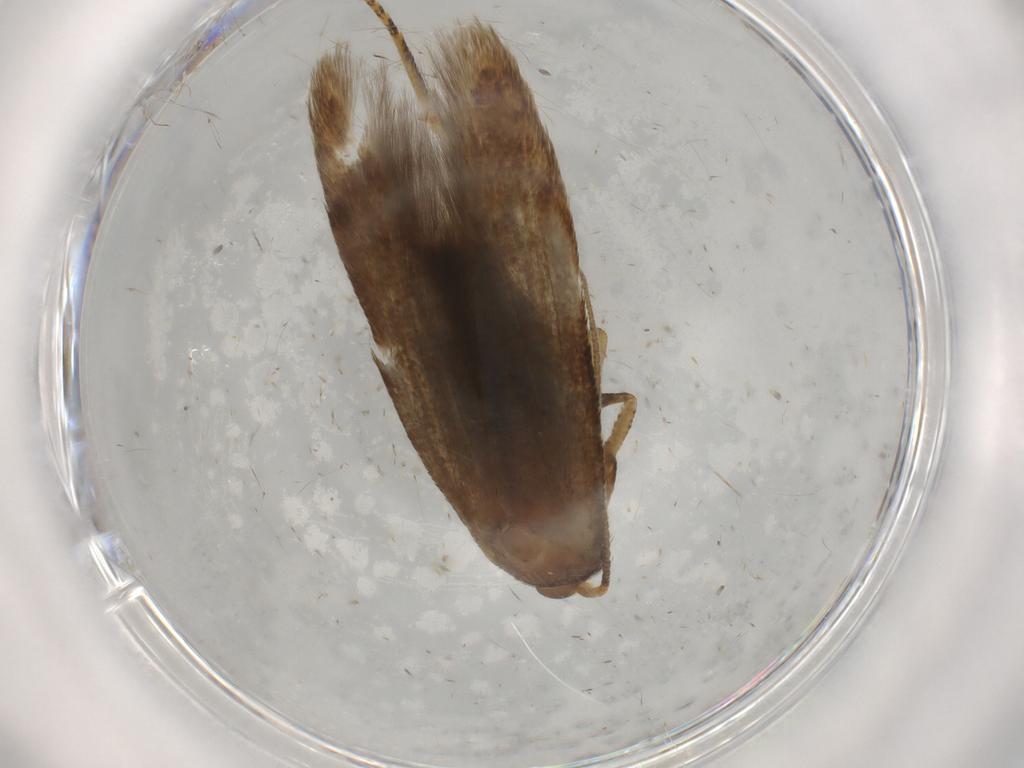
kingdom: Animalia
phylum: Arthropoda
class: Insecta
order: Lepidoptera
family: Coleophoridae
